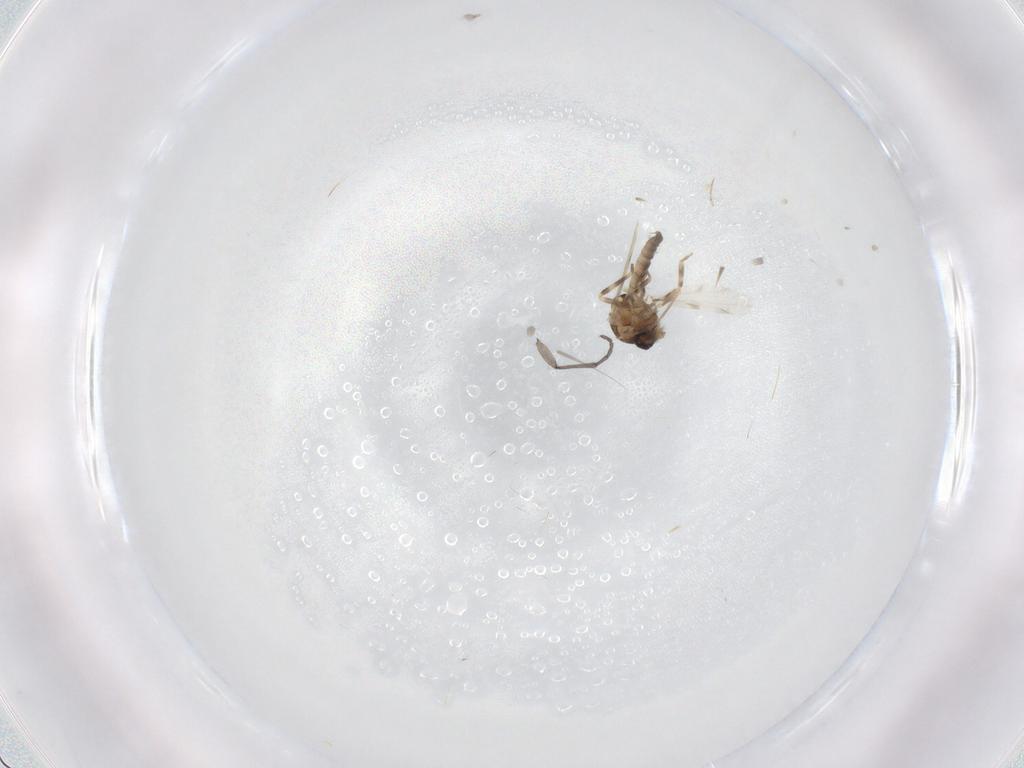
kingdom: Animalia
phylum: Arthropoda
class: Insecta
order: Diptera
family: Ceratopogonidae
